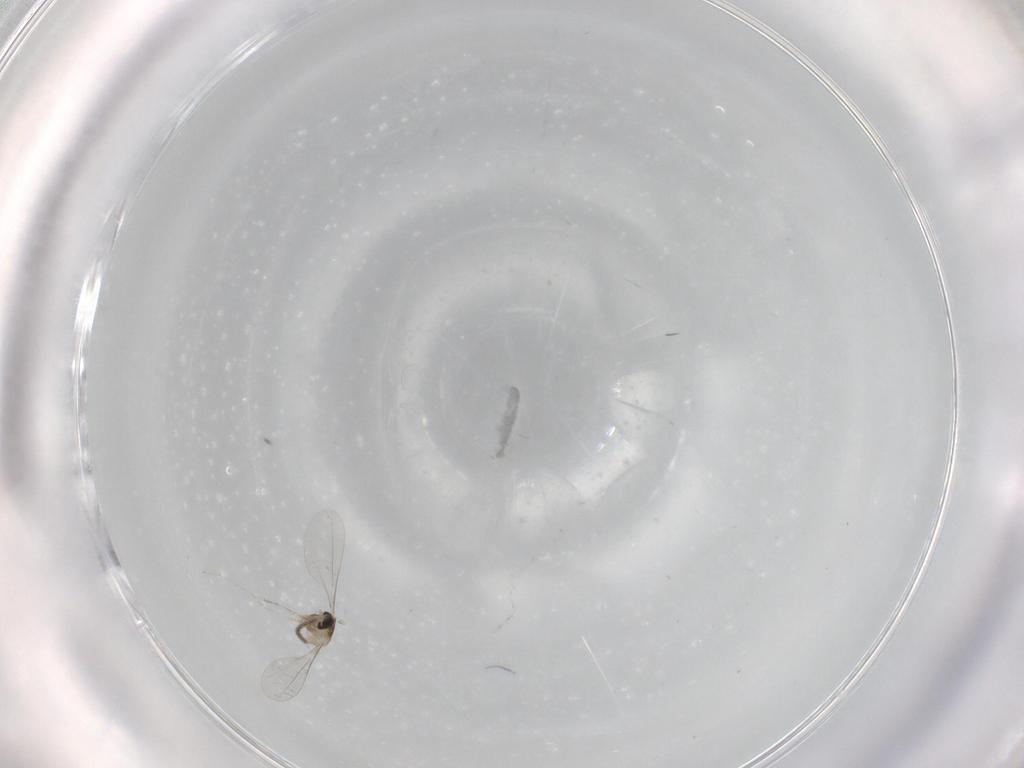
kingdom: Animalia
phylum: Arthropoda
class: Insecta
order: Diptera
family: Cecidomyiidae
